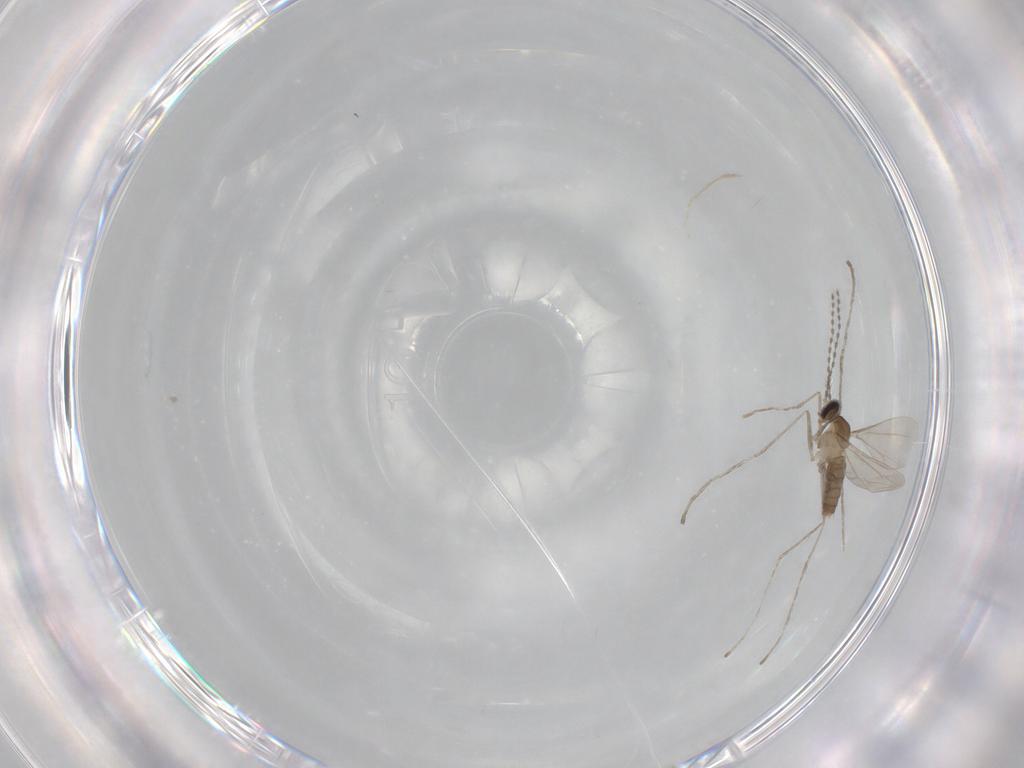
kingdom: Animalia
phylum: Arthropoda
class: Insecta
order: Diptera
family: Cecidomyiidae
